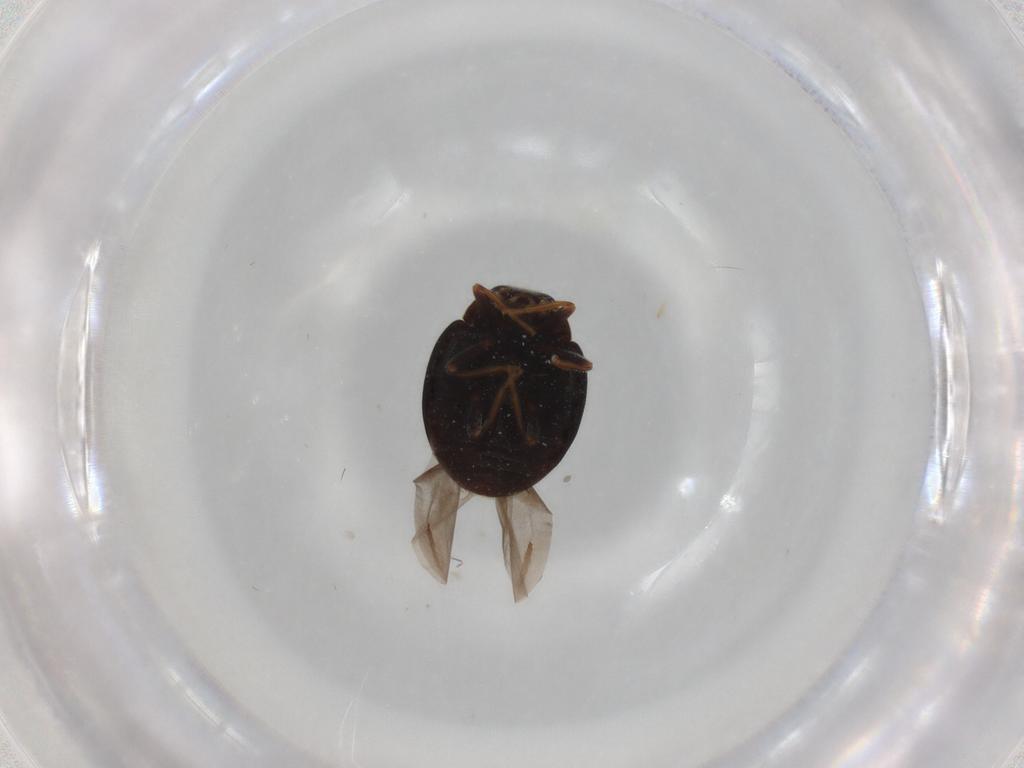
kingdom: Animalia
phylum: Arthropoda
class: Insecta
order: Coleoptera
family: Coccinellidae
